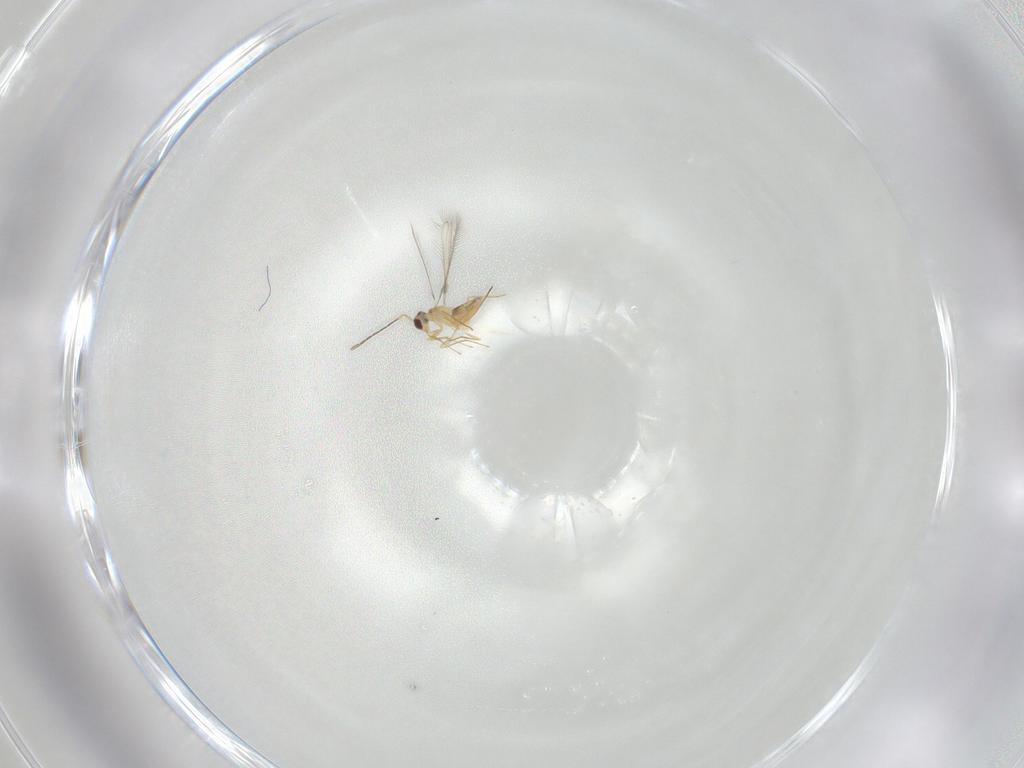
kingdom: Animalia
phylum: Arthropoda
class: Insecta
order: Hymenoptera
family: Mymaridae
